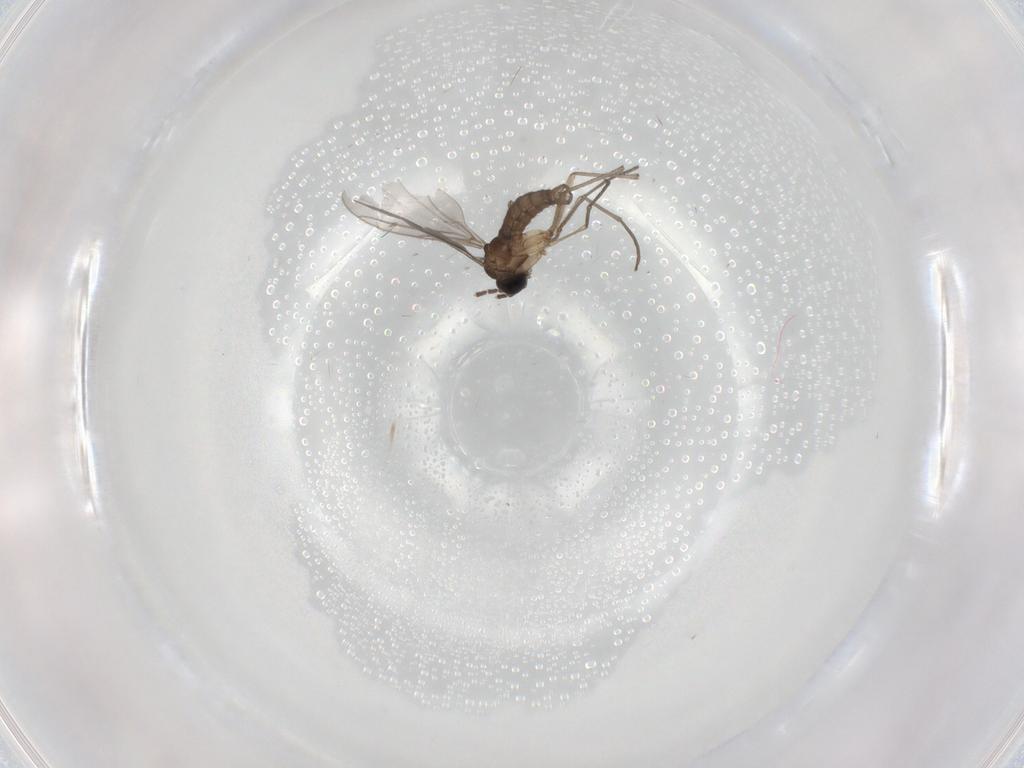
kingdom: Animalia
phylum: Arthropoda
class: Insecta
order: Diptera
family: Sciaridae
